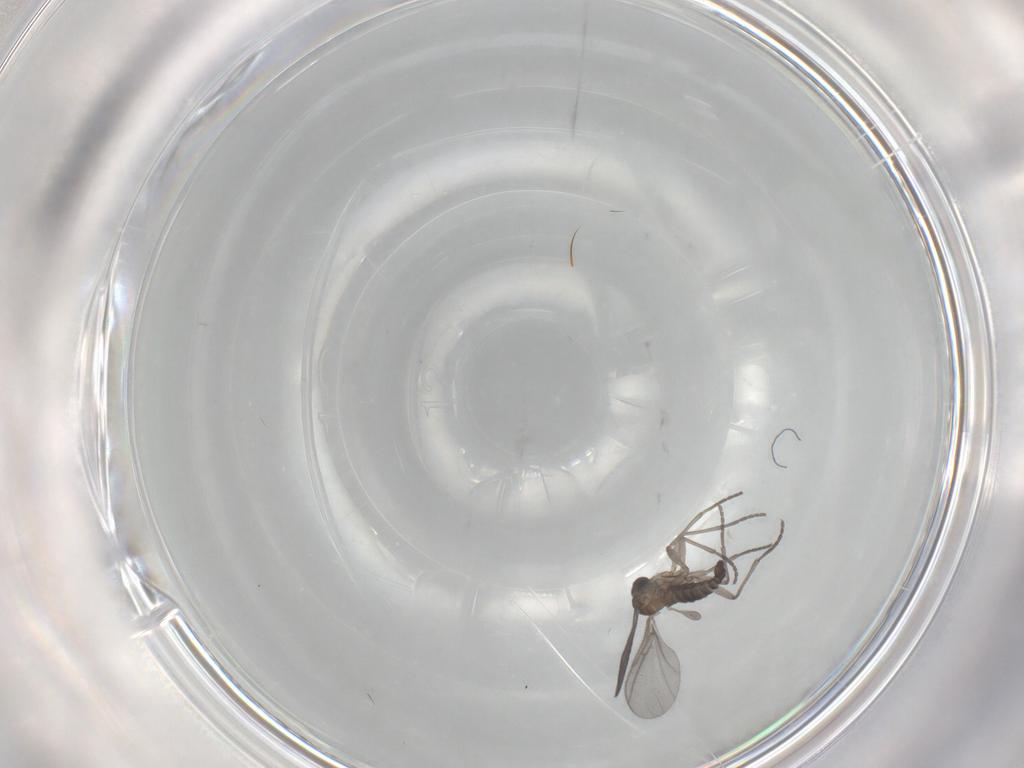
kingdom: Animalia
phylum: Arthropoda
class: Insecta
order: Diptera
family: Sciaridae
